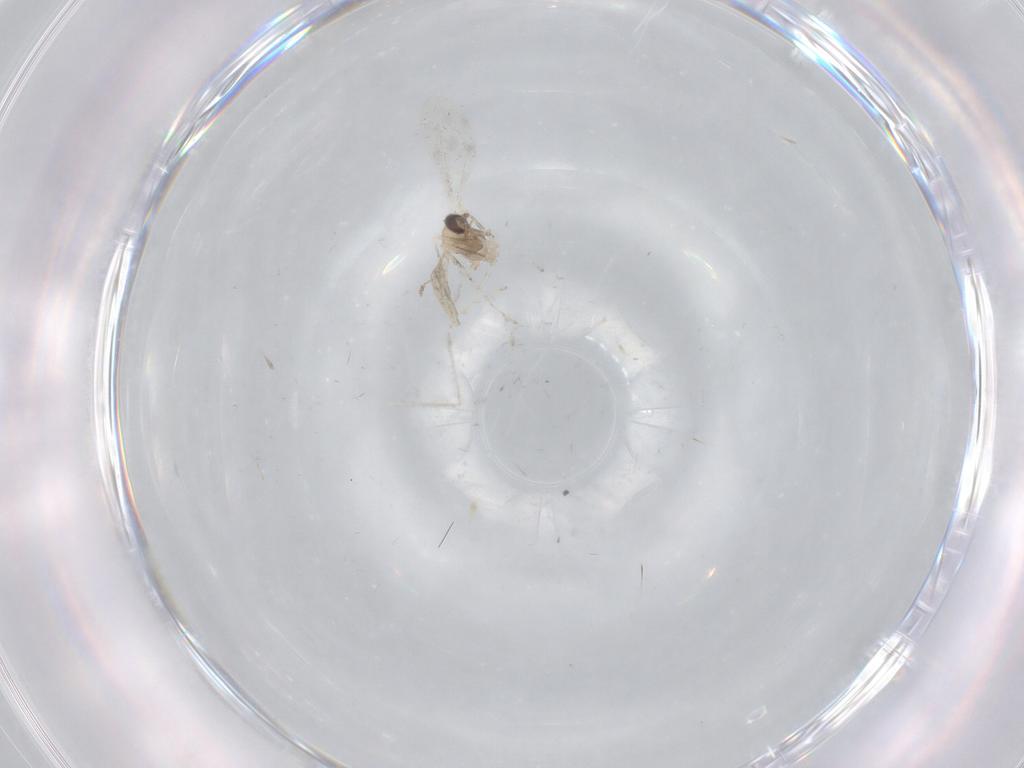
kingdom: Animalia
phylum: Arthropoda
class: Insecta
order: Diptera
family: Cecidomyiidae
